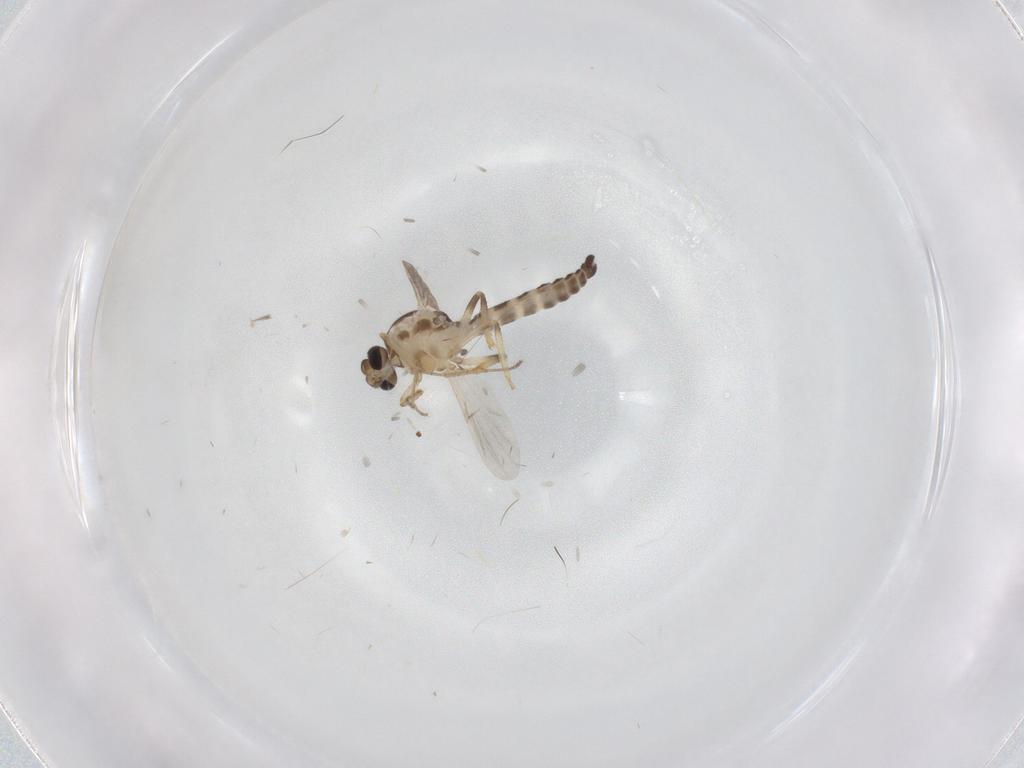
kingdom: Animalia
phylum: Arthropoda
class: Insecta
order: Diptera
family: Ceratopogonidae
